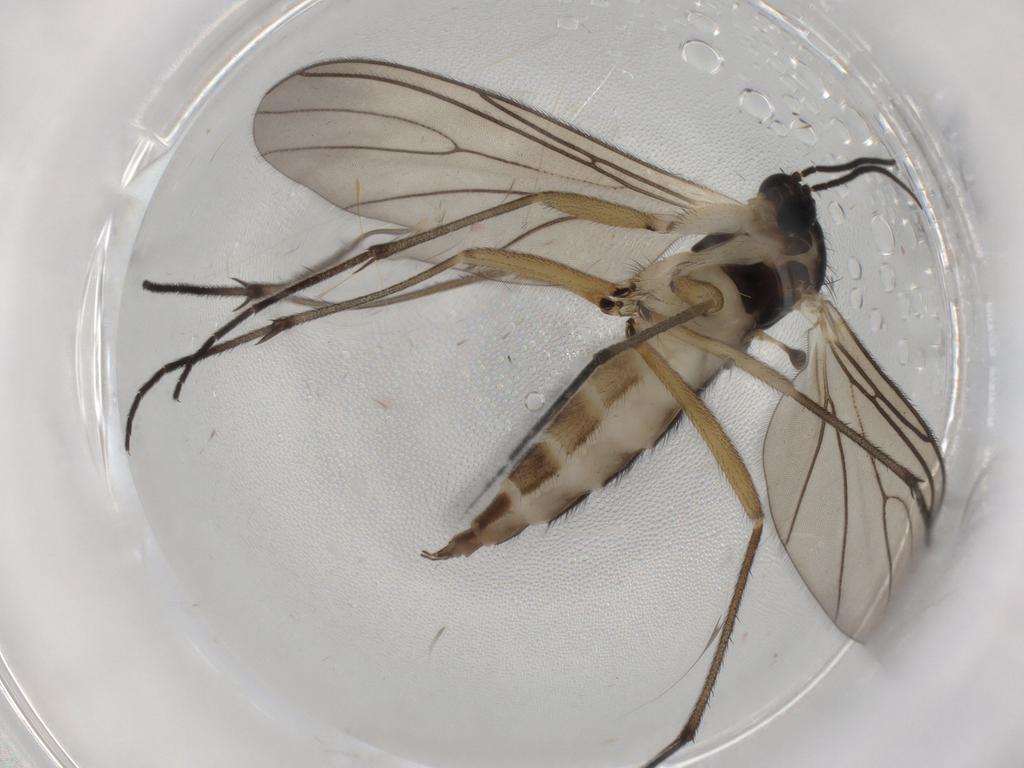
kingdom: Animalia
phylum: Arthropoda
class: Insecta
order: Diptera
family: Sciaridae
